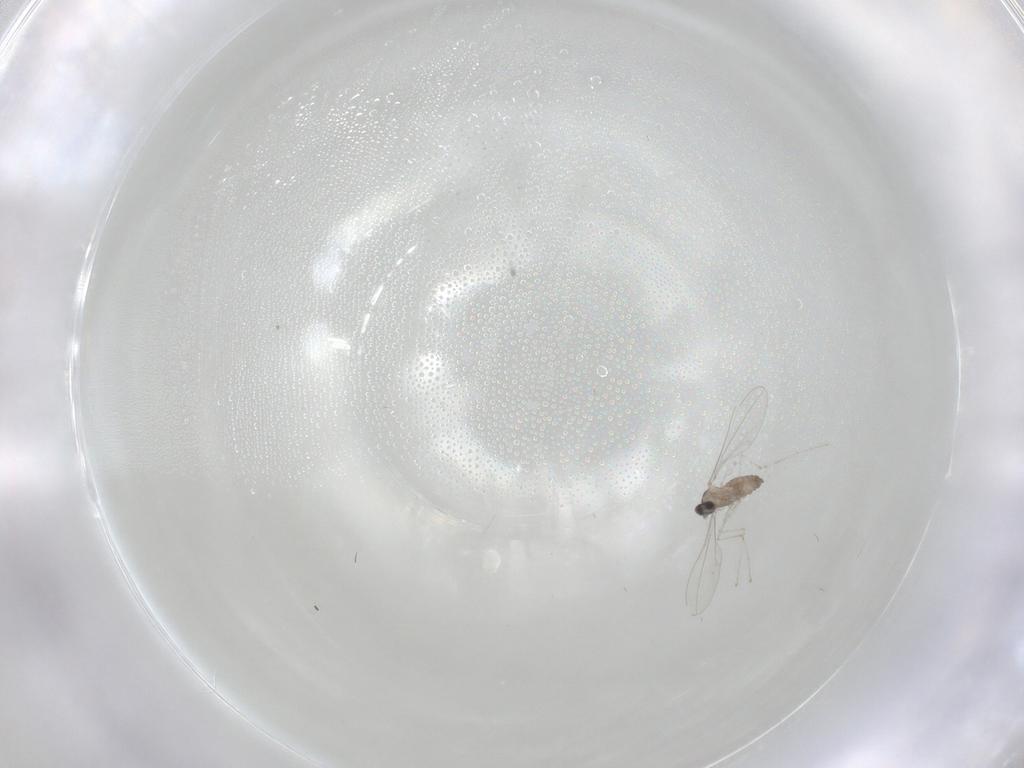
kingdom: Animalia
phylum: Arthropoda
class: Insecta
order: Diptera
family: Cecidomyiidae
